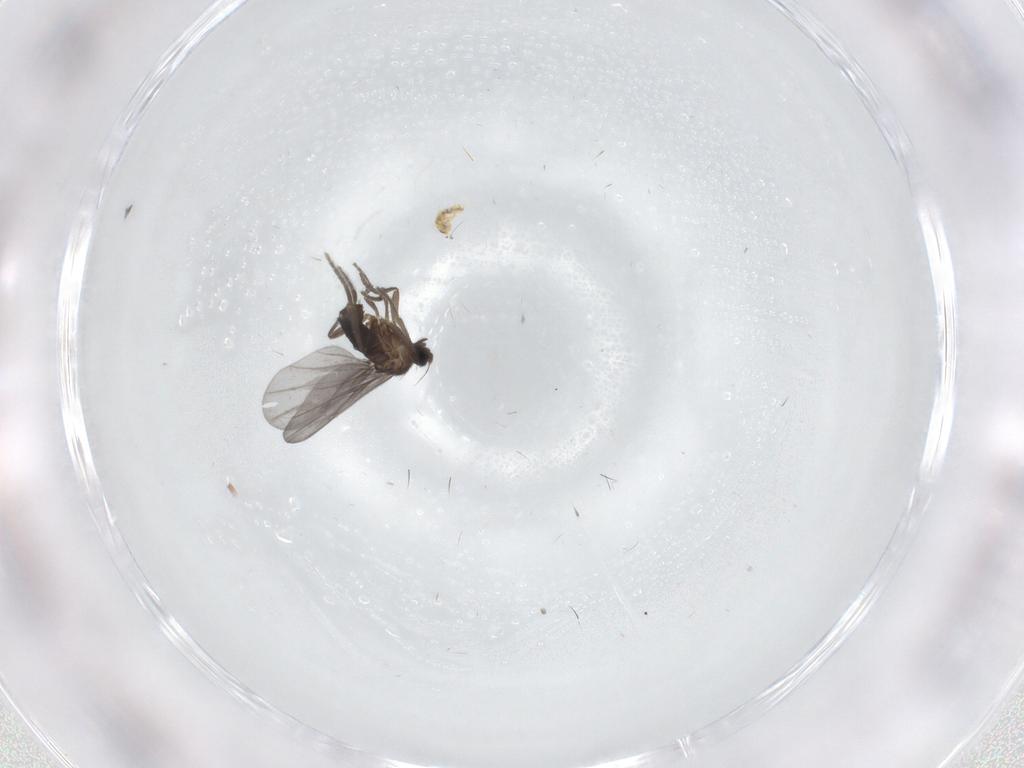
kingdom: Animalia
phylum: Arthropoda
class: Insecta
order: Diptera
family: Phoridae
